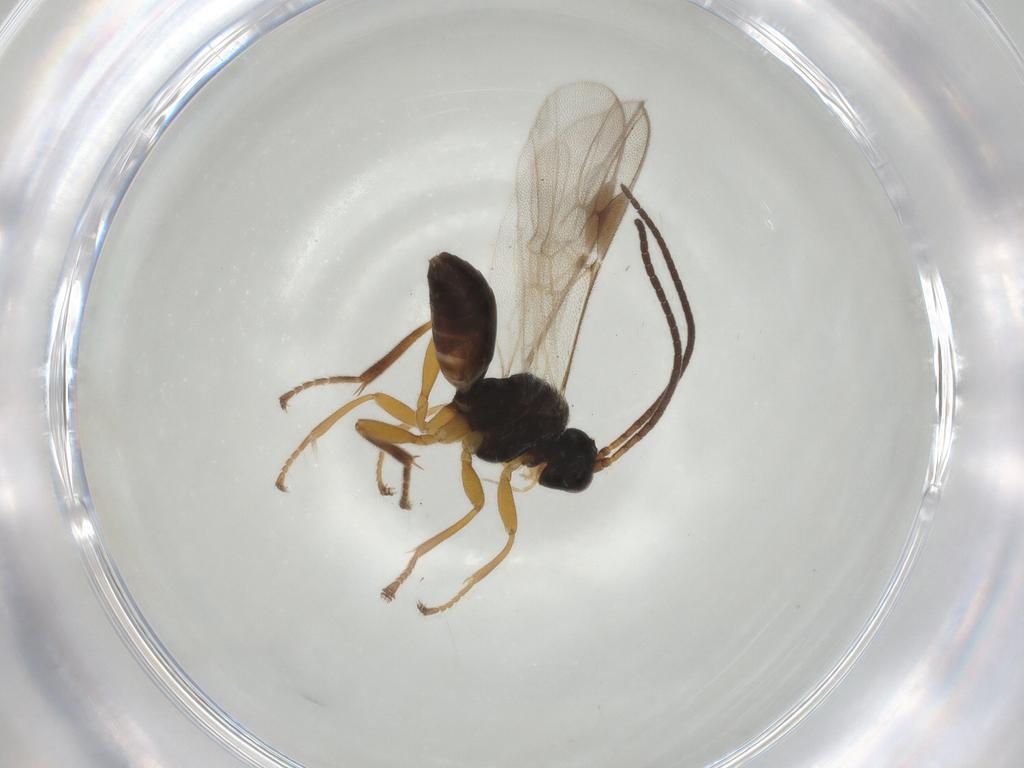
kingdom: Animalia
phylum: Arthropoda
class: Insecta
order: Hymenoptera
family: Braconidae
